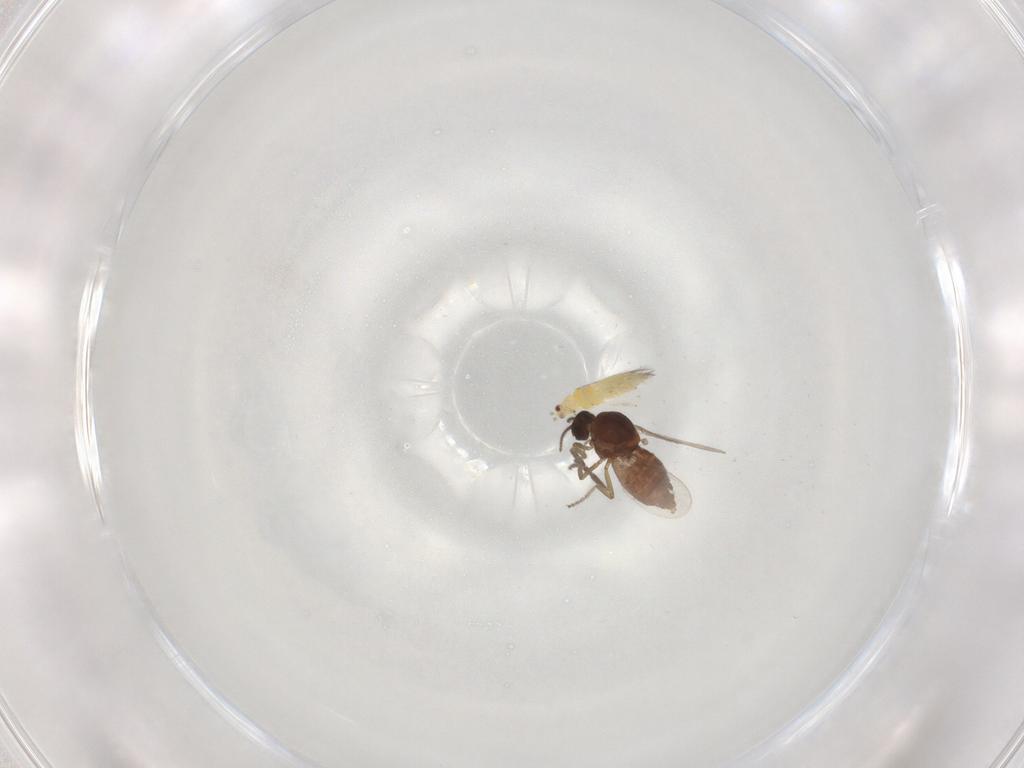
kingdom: Animalia
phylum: Arthropoda
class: Insecta
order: Diptera
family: Ceratopogonidae
